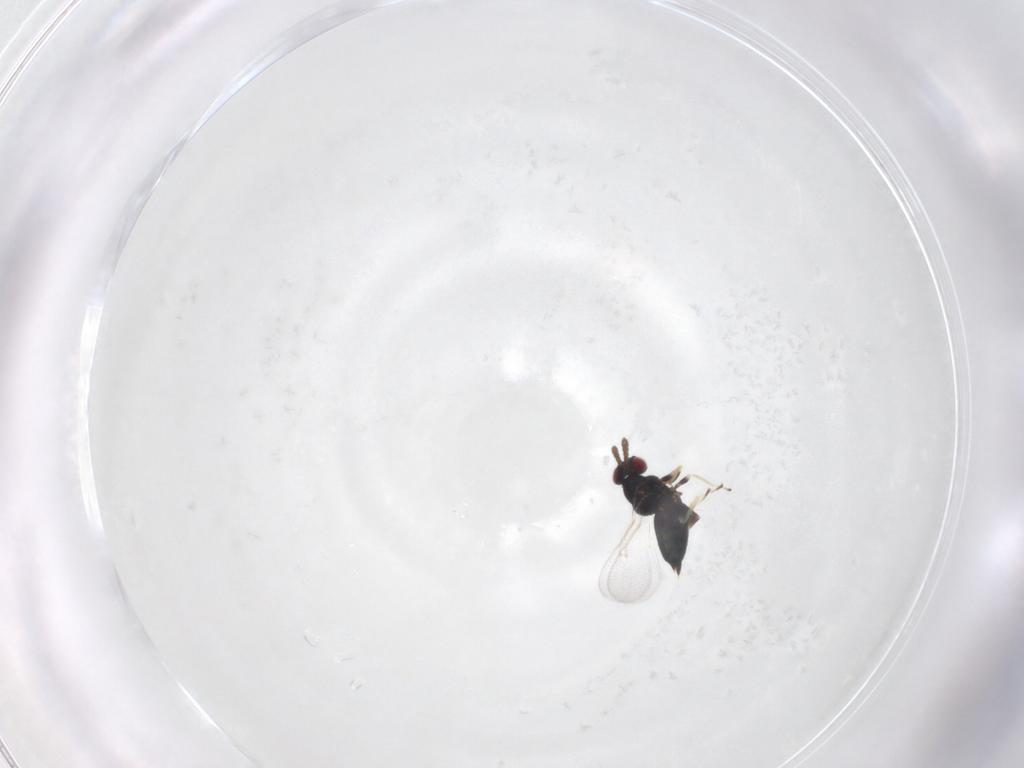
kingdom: Animalia
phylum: Arthropoda
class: Insecta
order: Hymenoptera
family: Eulophidae
